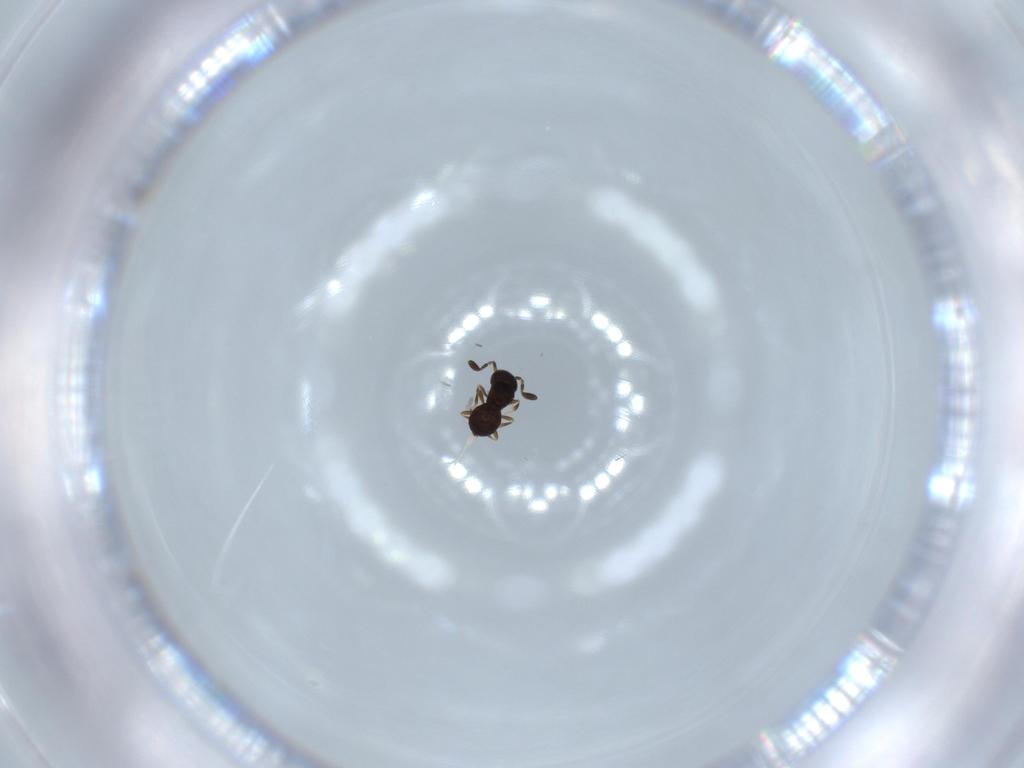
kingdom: Animalia
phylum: Arthropoda
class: Insecta
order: Hymenoptera
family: Scelionidae
